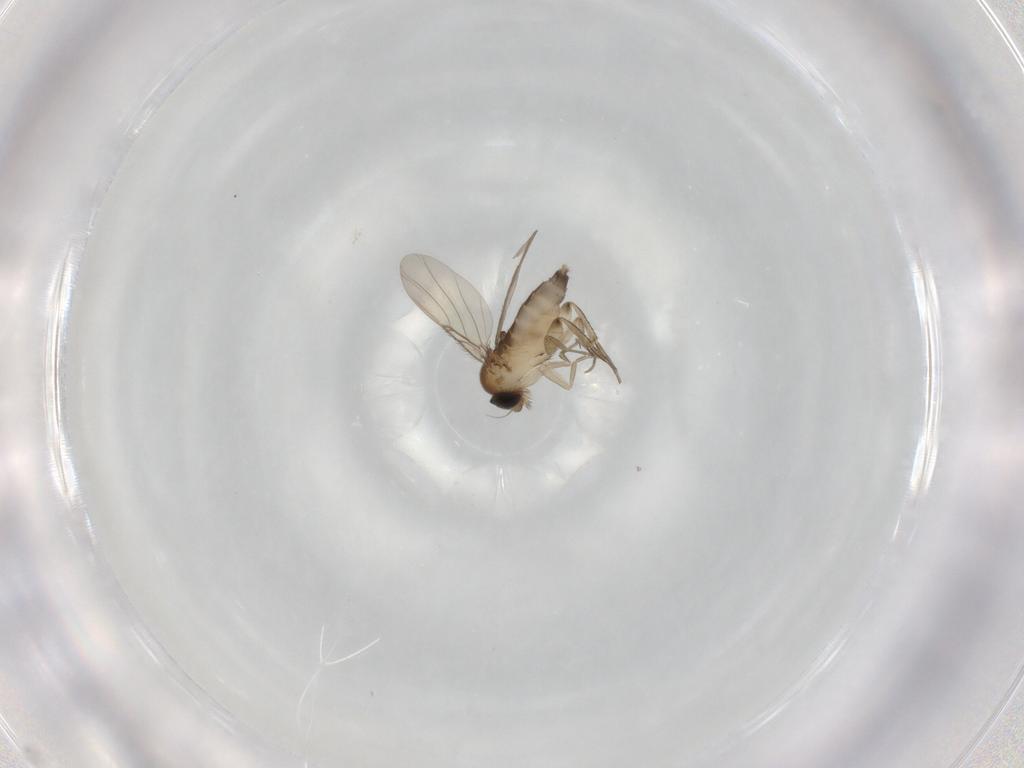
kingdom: Animalia
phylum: Arthropoda
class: Insecta
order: Diptera
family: Phoridae
